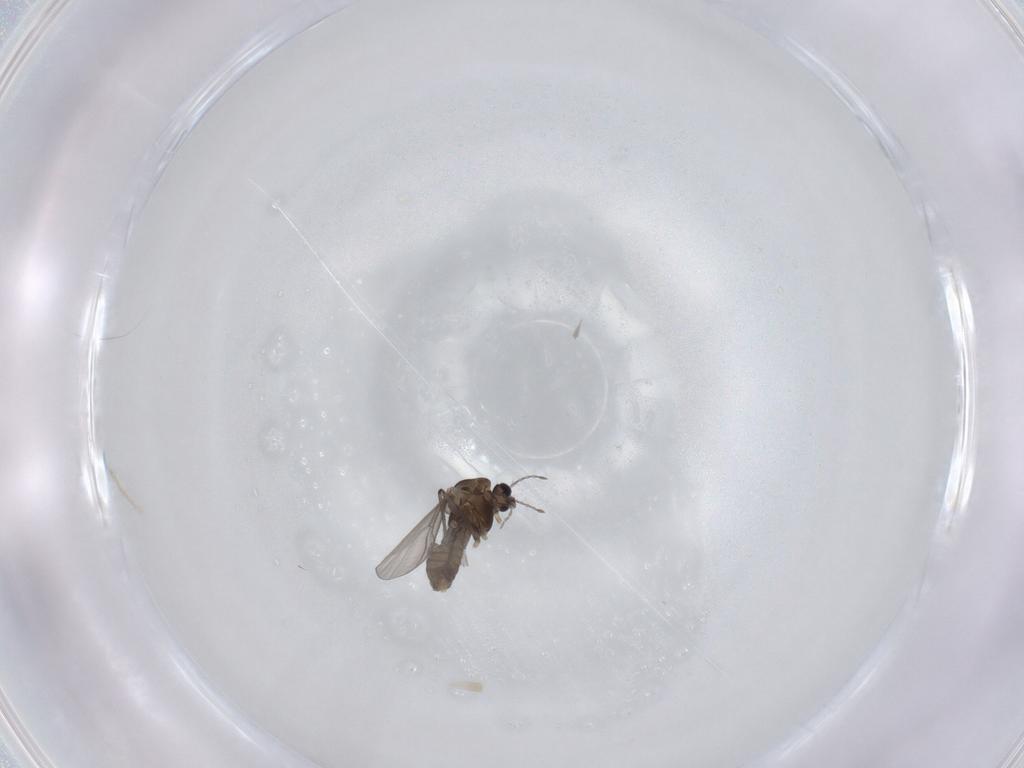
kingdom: Animalia
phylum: Arthropoda
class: Insecta
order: Diptera
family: Chironomidae
